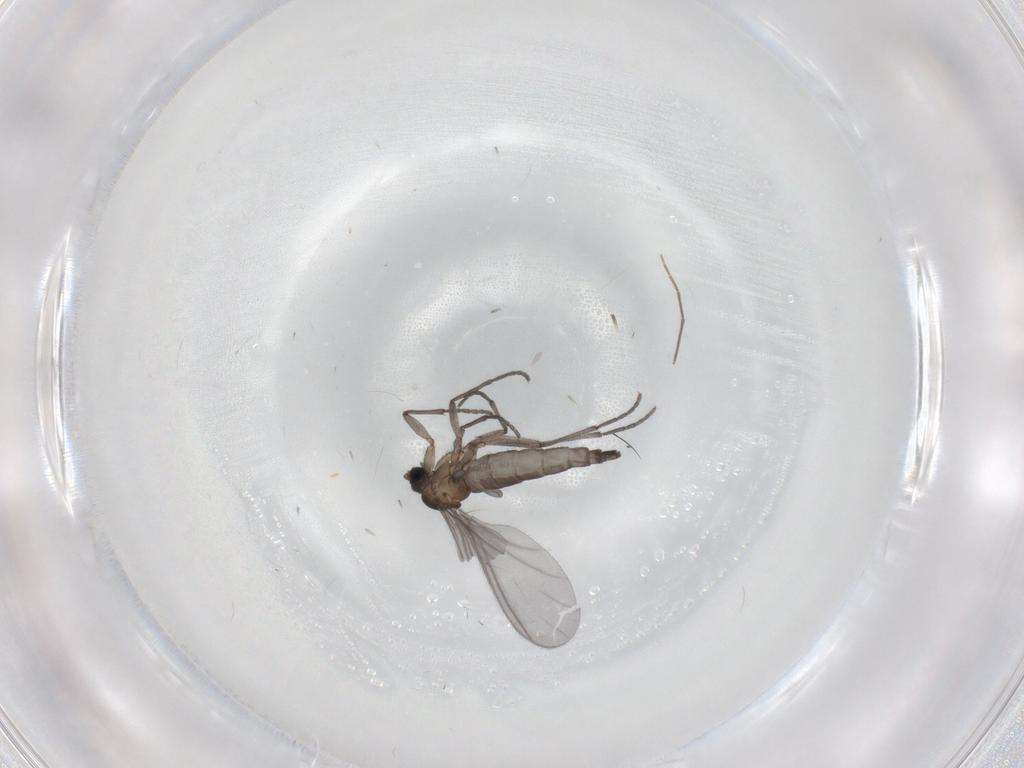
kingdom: Animalia
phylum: Arthropoda
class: Insecta
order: Diptera
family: Sciaridae
